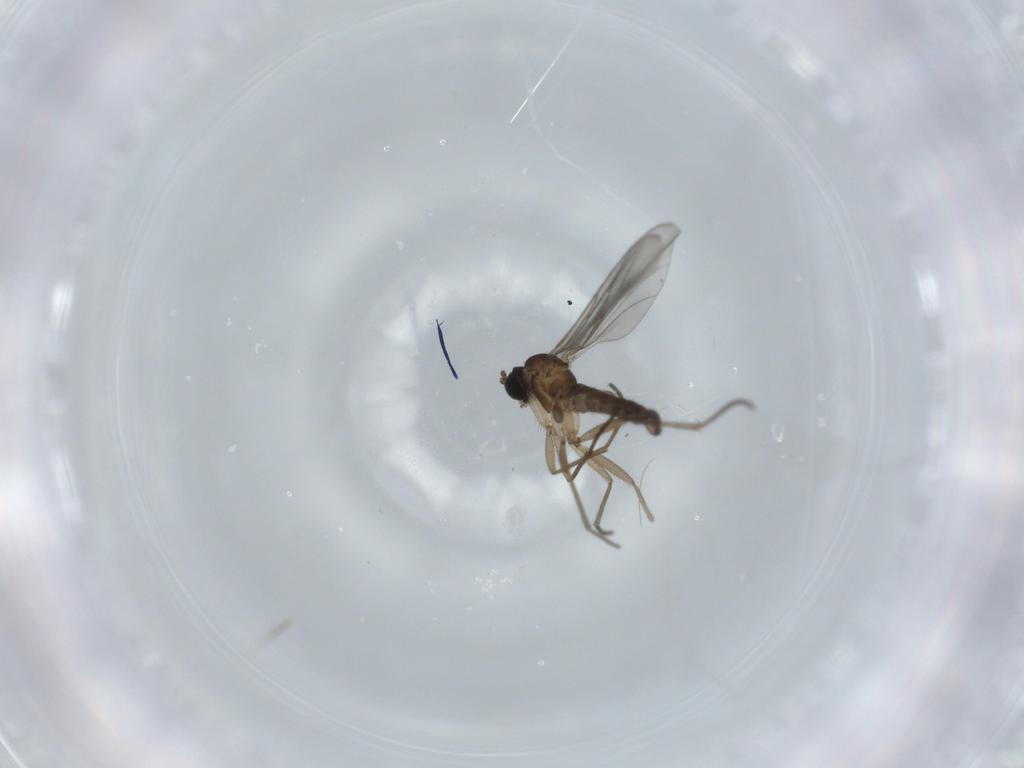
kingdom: Animalia
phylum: Arthropoda
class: Insecta
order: Diptera
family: Sciaridae
